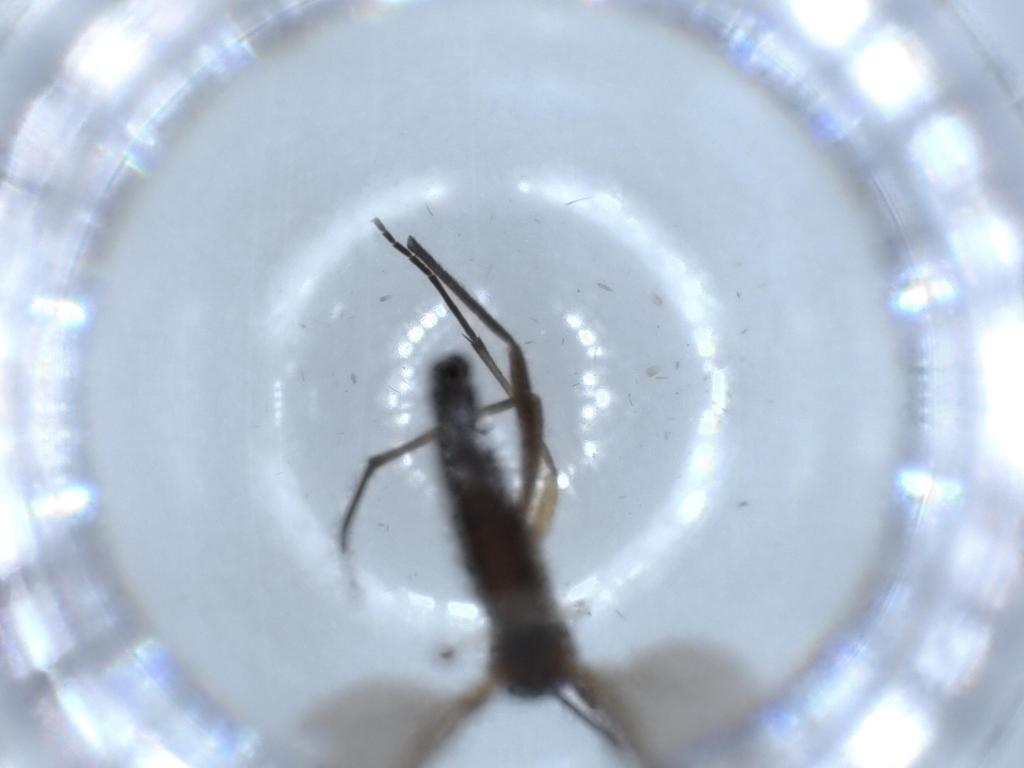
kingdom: Animalia
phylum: Arthropoda
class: Insecta
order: Diptera
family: Sciaridae
